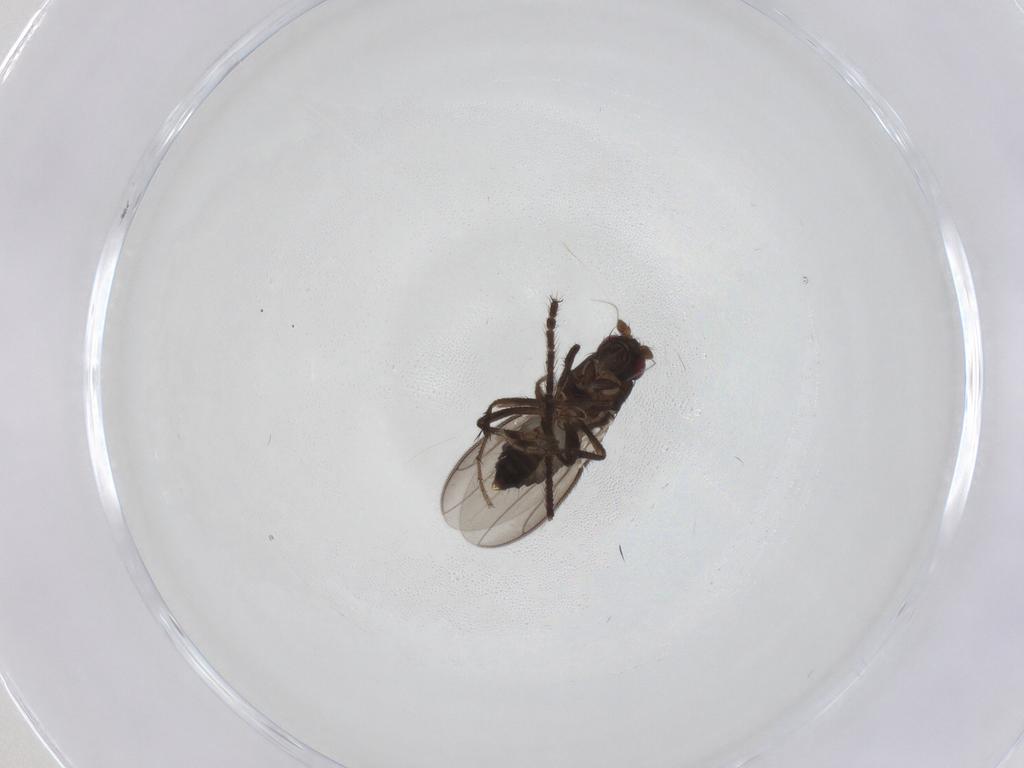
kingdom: Animalia
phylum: Arthropoda
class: Insecta
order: Diptera
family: Sphaeroceridae
